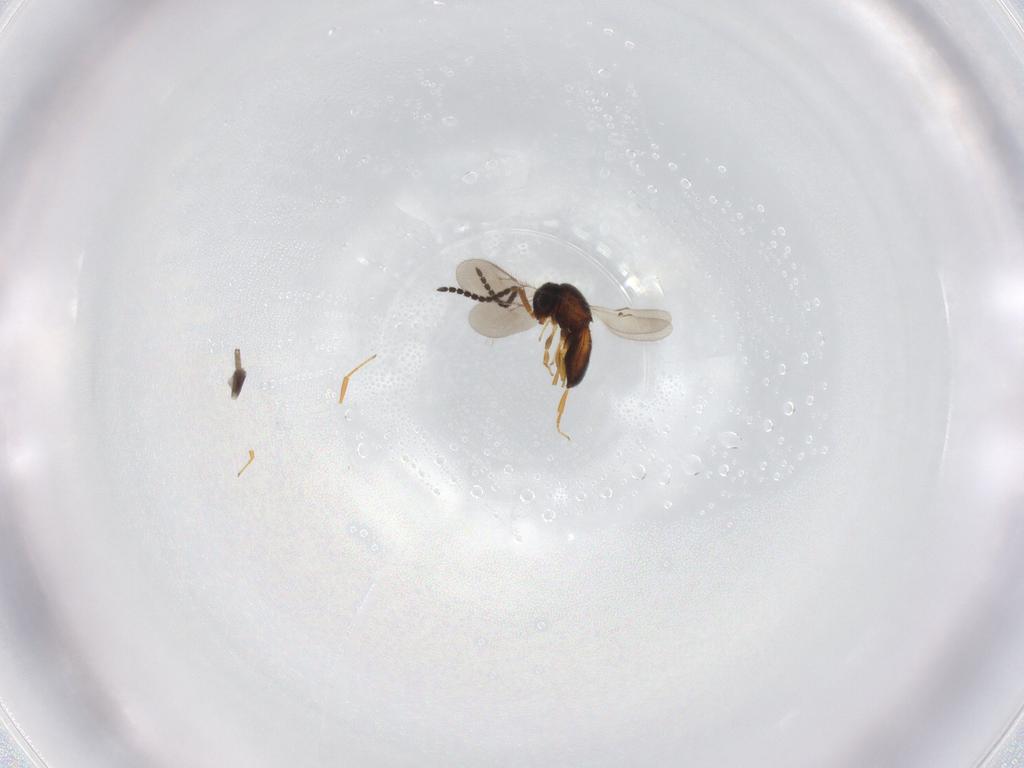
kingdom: Animalia
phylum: Arthropoda
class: Insecta
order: Hymenoptera
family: Scelionidae
